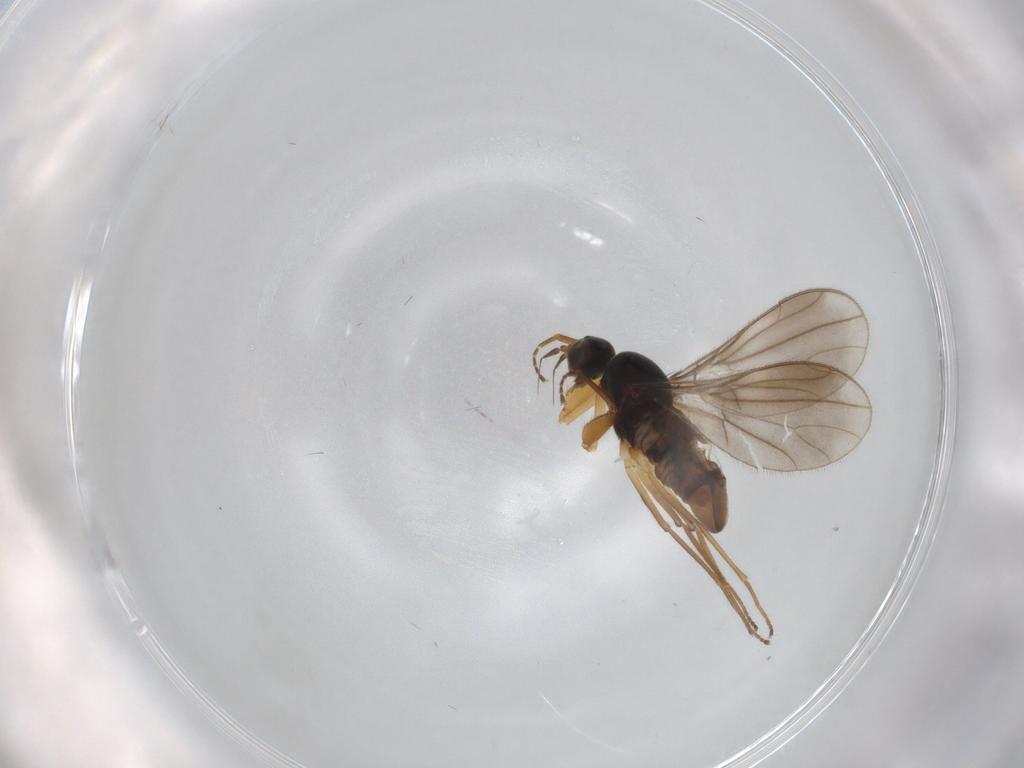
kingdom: Animalia
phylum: Arthropoda
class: Insecta
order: Diptera
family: Empididae
